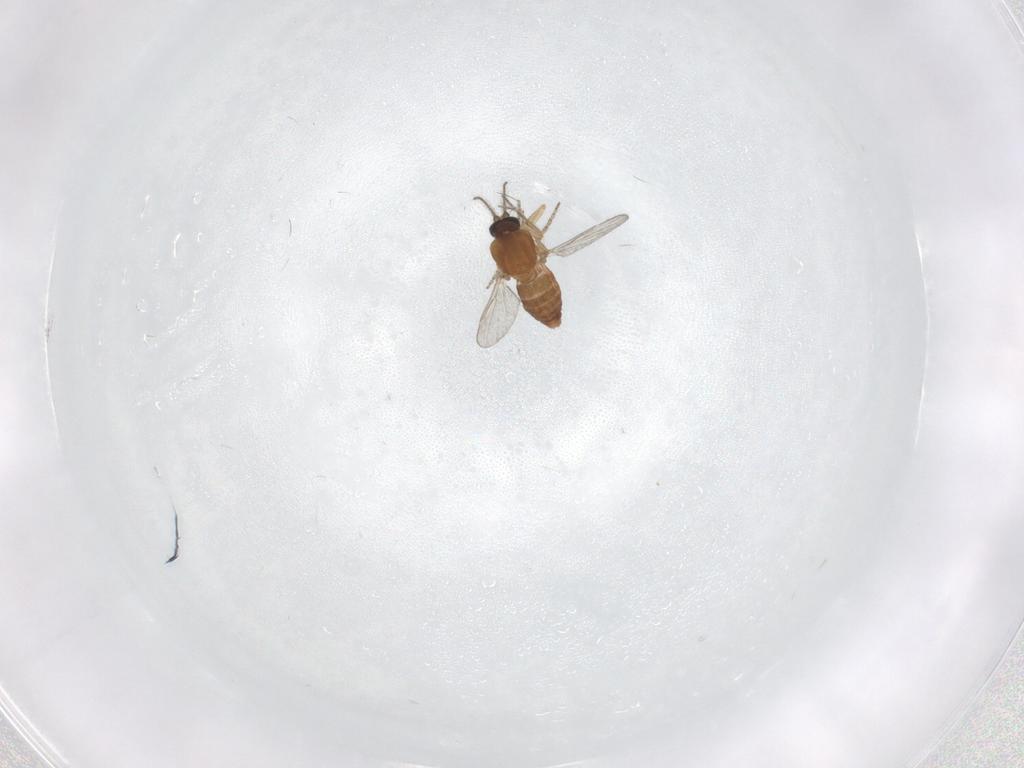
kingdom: Animalia
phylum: Arthropoda
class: Insecta
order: Diptera
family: Ceratopogonidae
